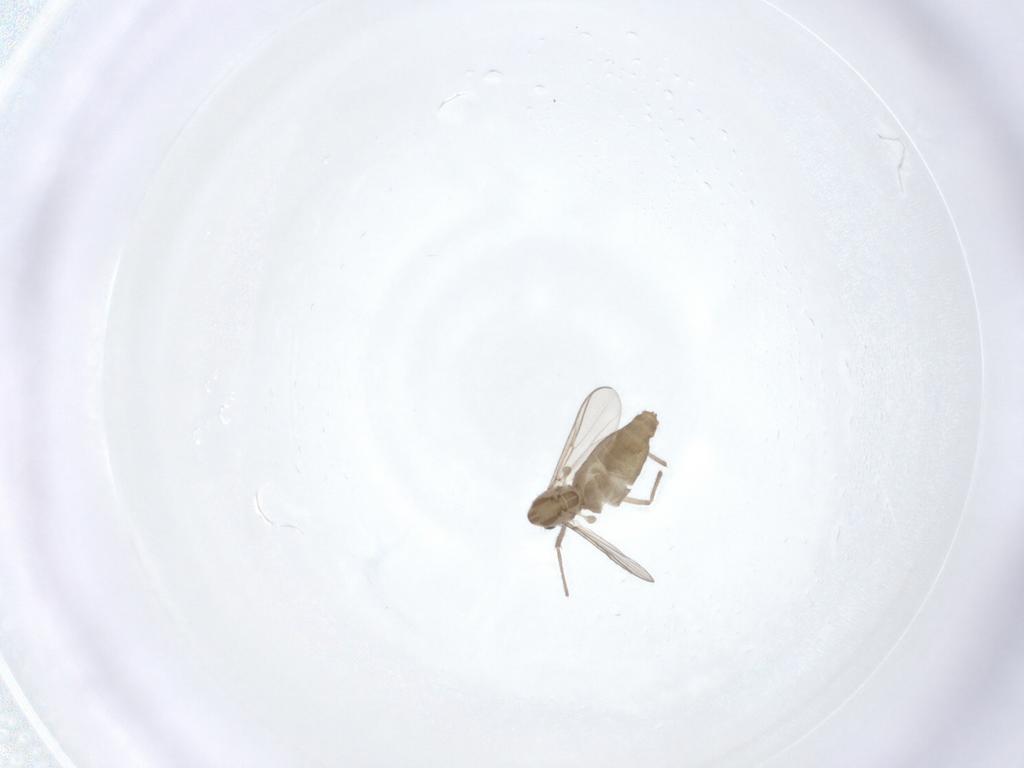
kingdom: Animalia
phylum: Arthropoda
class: Insecta
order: Diptera
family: Chironomidae
